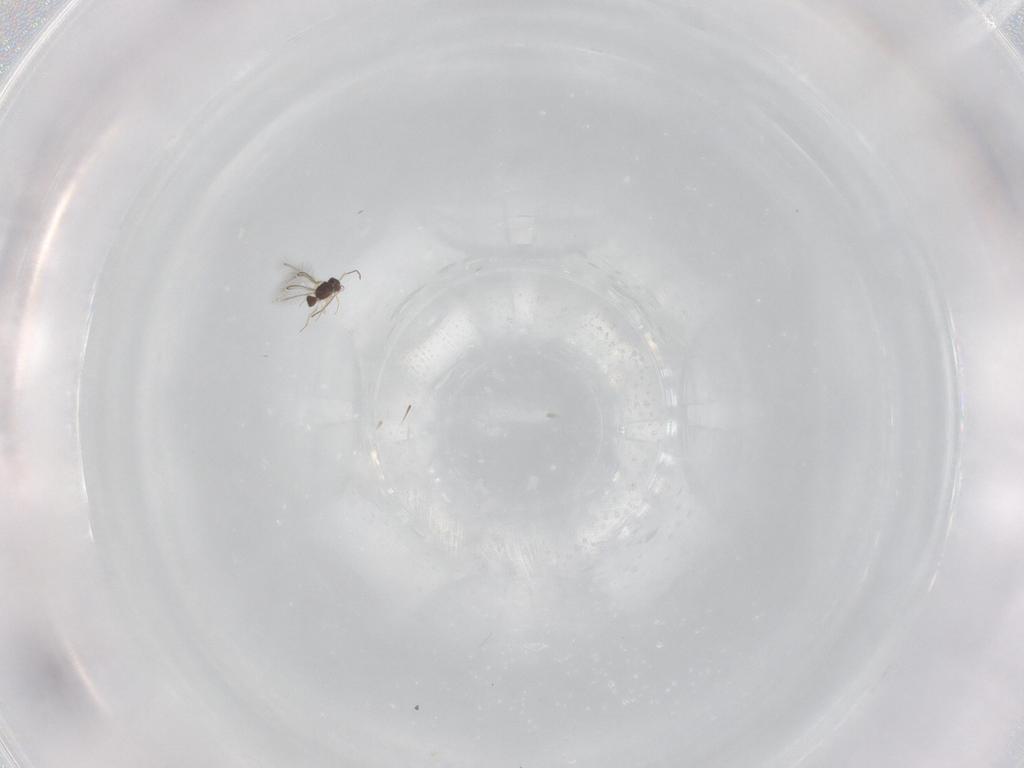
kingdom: Animalia
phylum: Arthropoda
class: Insecta
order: Hymenoptera
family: Mymaridae
